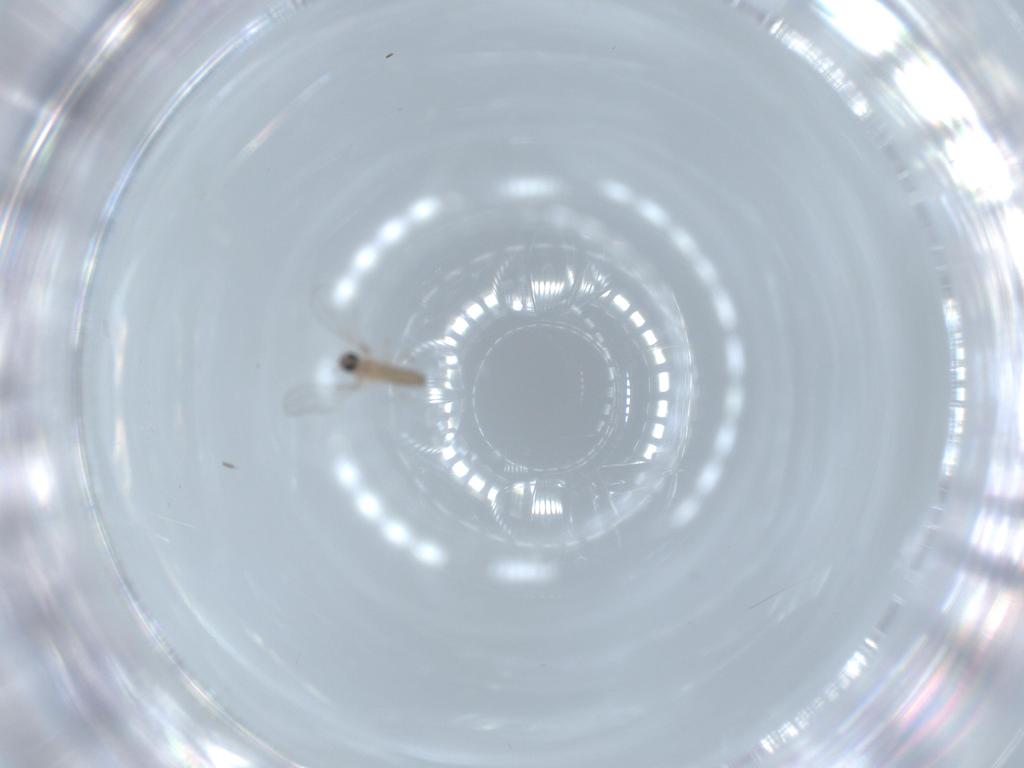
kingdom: Animalia
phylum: Arthropoda
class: Insecta
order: Diptera
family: Cecidomyiidae
